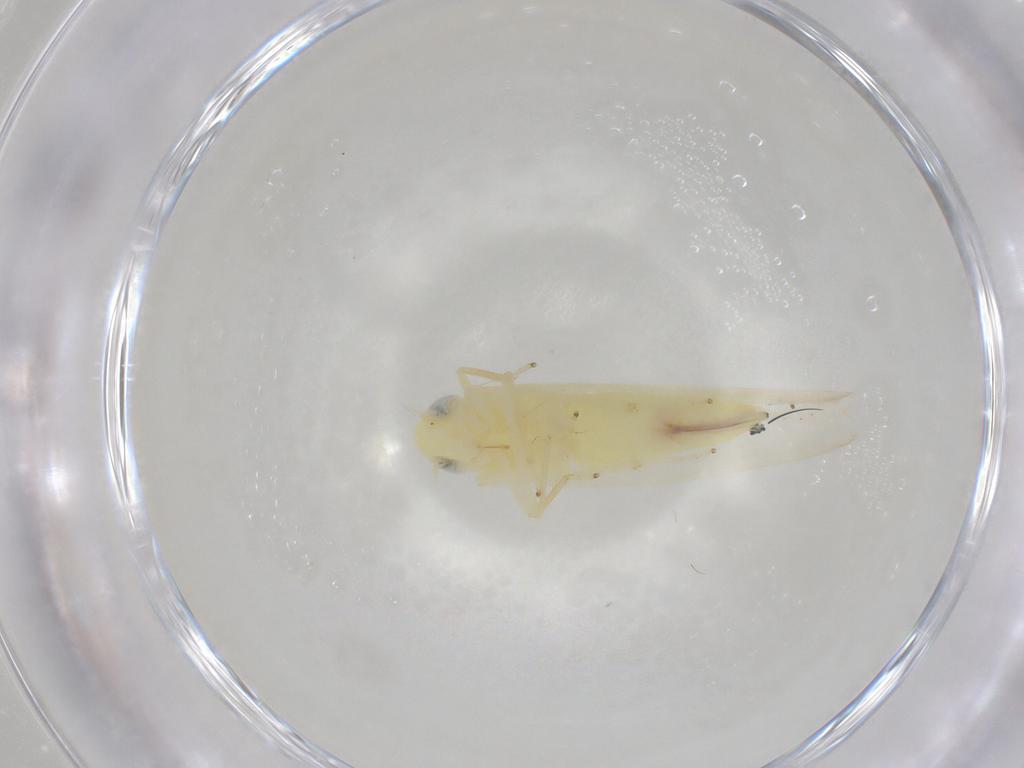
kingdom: Animalia
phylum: Arthropoda
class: Insecta
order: Hemiptera
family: Cicadellidae
